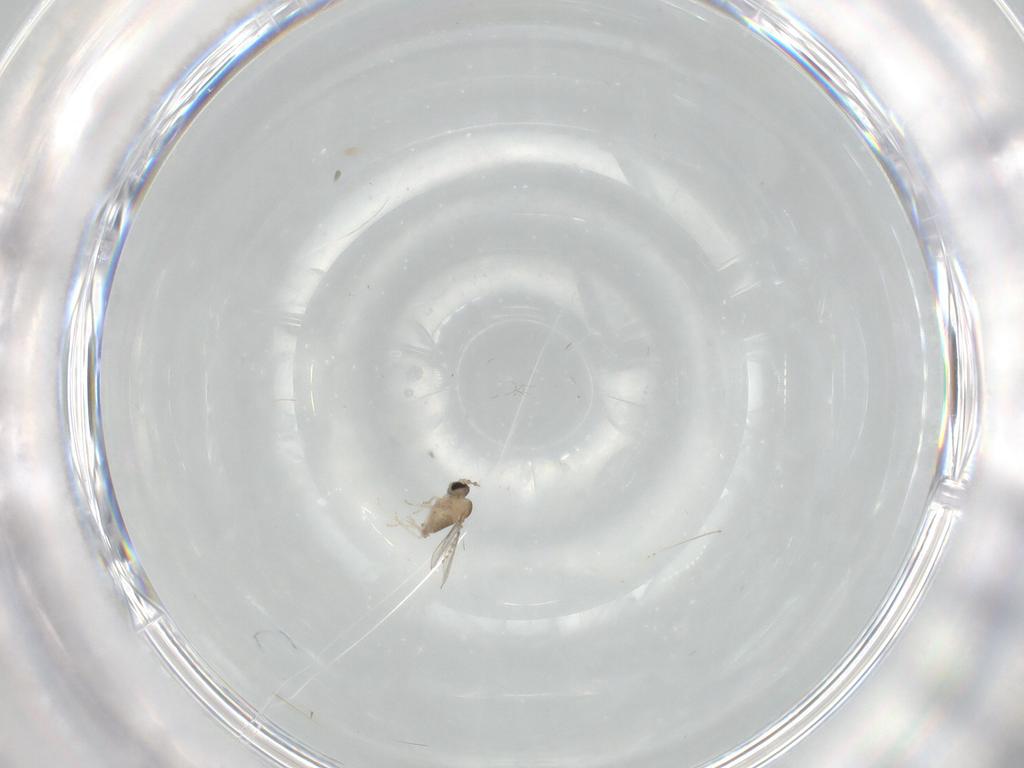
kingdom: Animalia
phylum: Arthropoda
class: Insecta
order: Diptera
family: Cecidomyiidae
